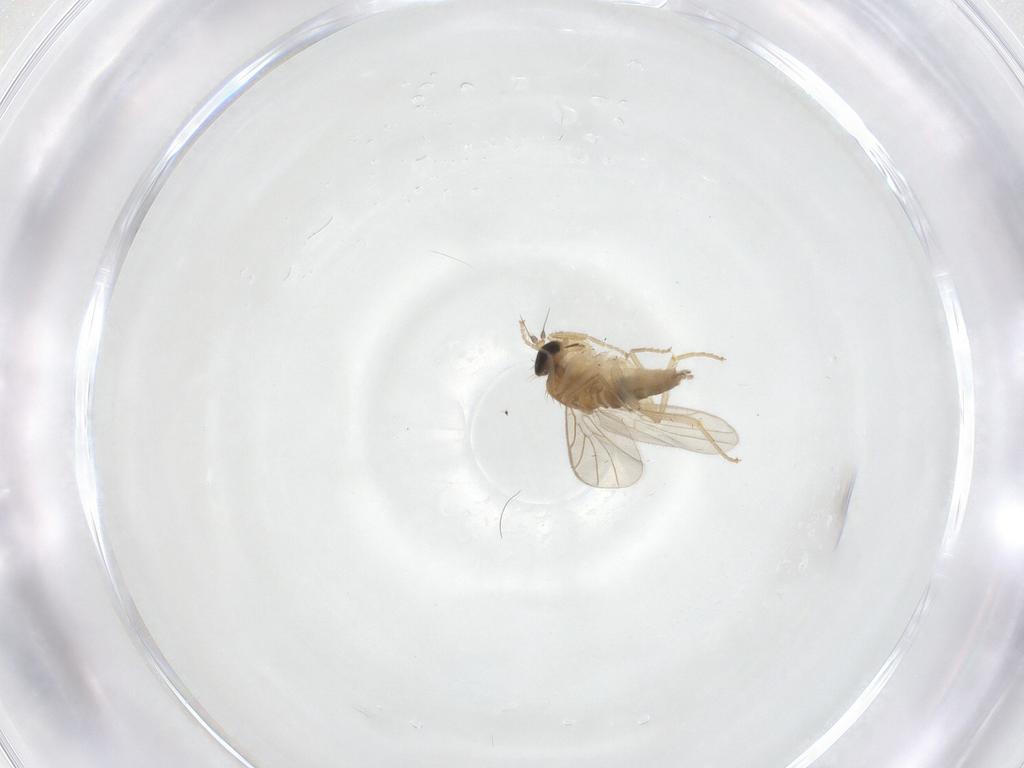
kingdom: Animalia
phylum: Arthropoda
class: Insecta
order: Diptera
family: Chironomidae
